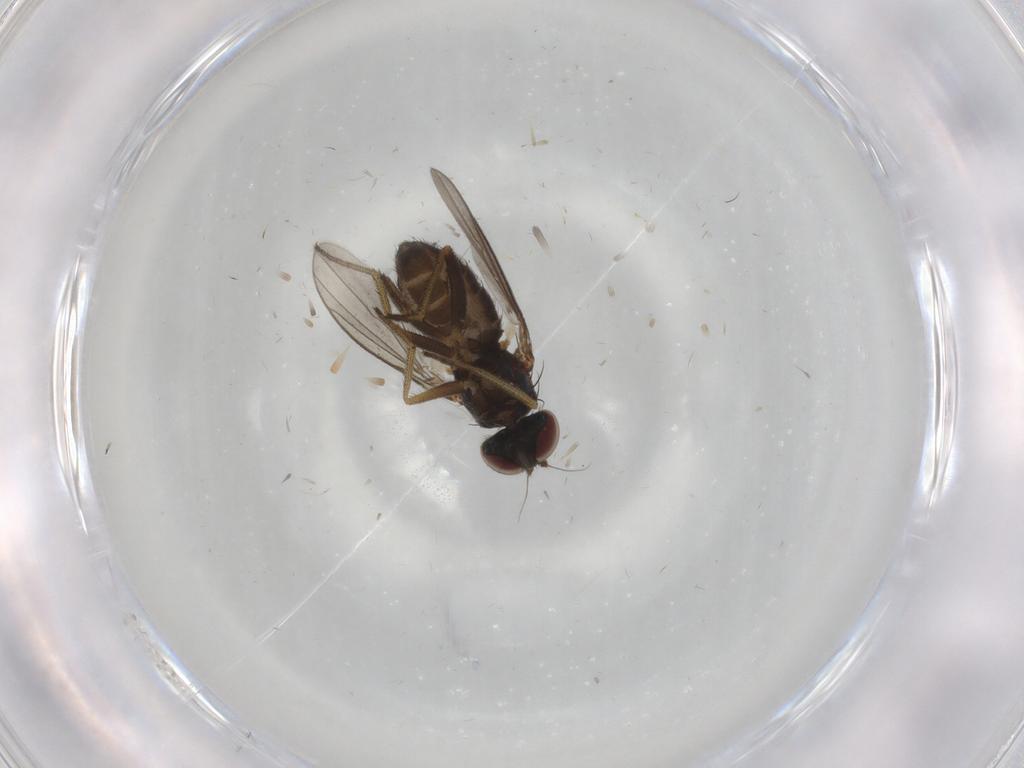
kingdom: Animalia
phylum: Arthropoda
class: Insecta
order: Diptera
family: Dolichopodidae
